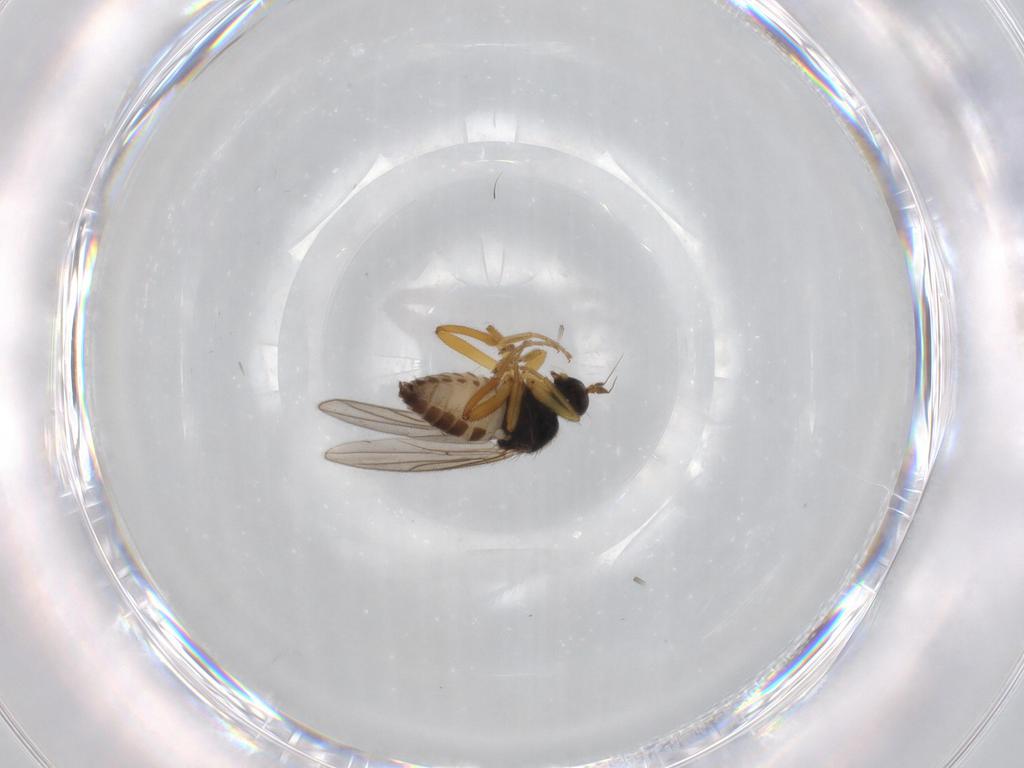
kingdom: Animalia
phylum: Arthropoda
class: Insecta
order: Diptera
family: Hybotidae
